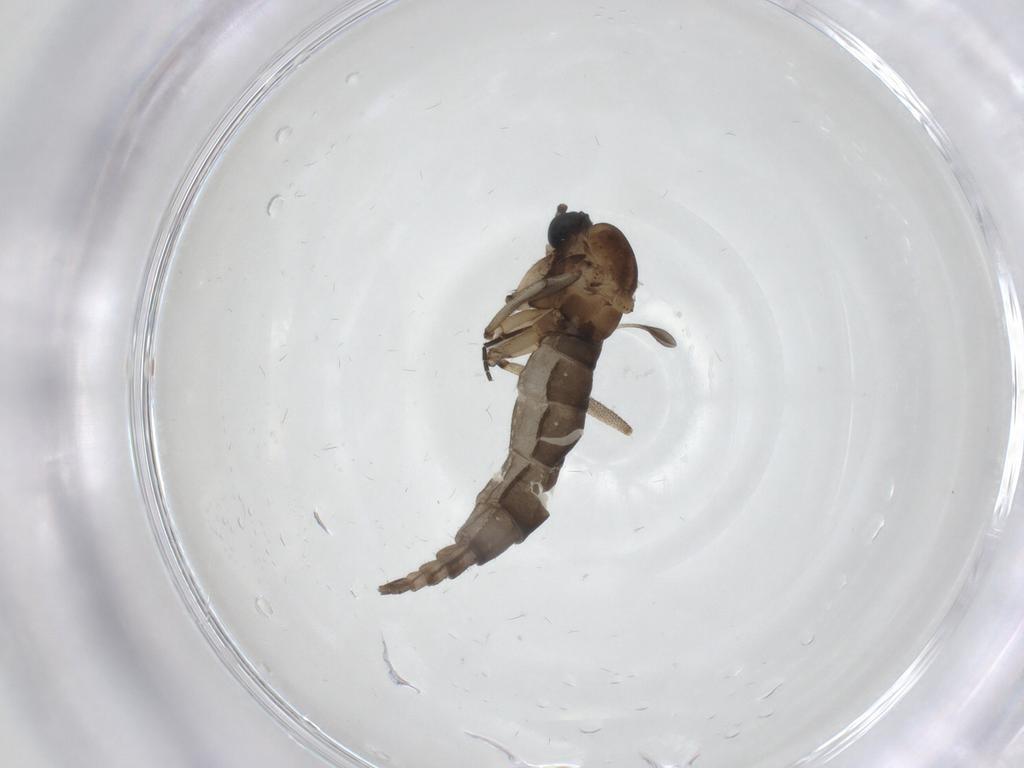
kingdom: Animalia
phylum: Arthropoda
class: Insecta
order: Diptera
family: Sciaridae
